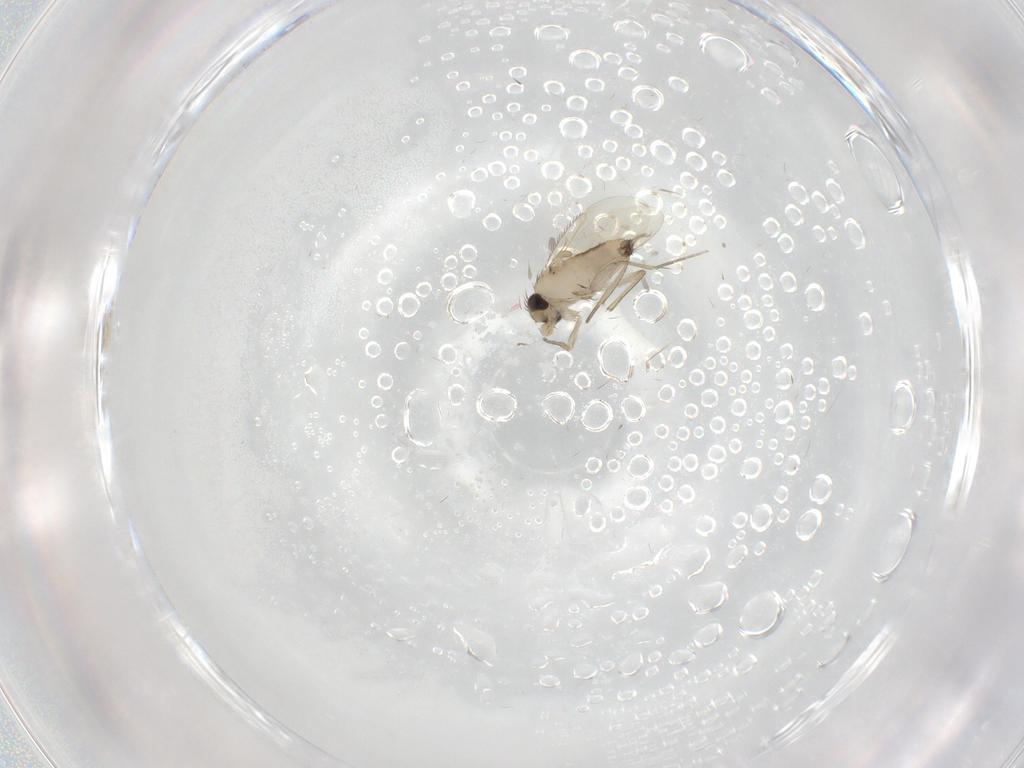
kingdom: Animalia
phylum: Arthropoda
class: Insecta
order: Diptera
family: Phoridae
